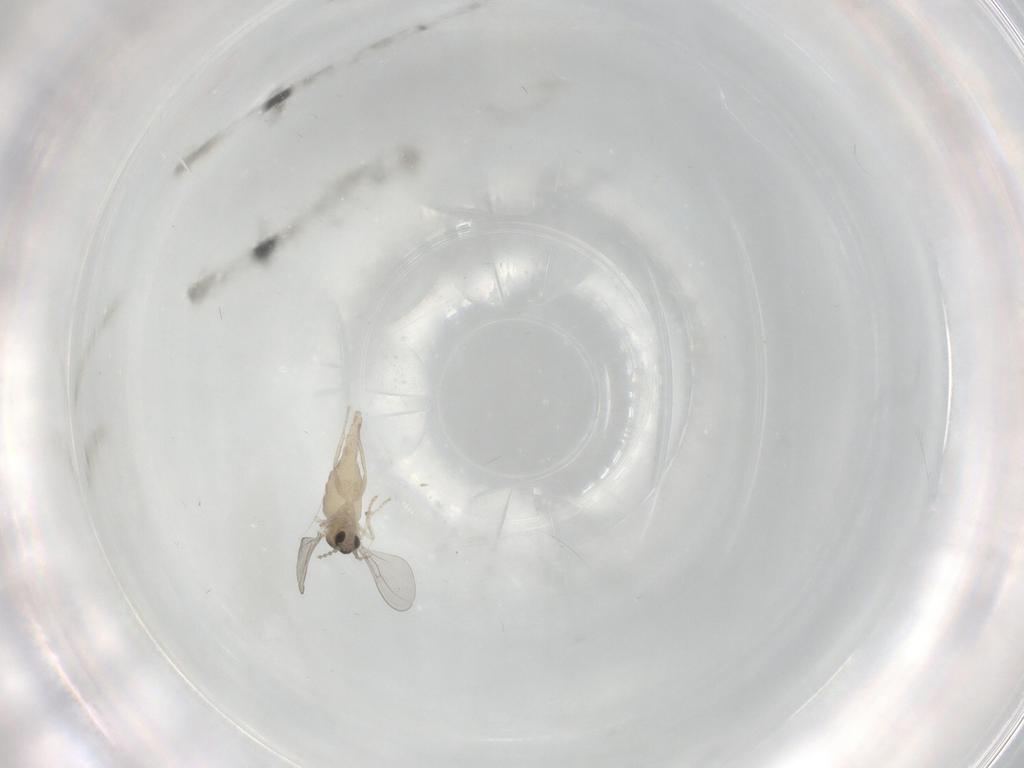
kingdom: Animalia
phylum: Arthropoda
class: Insecta
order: Diptera
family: Cecidomyiidae
